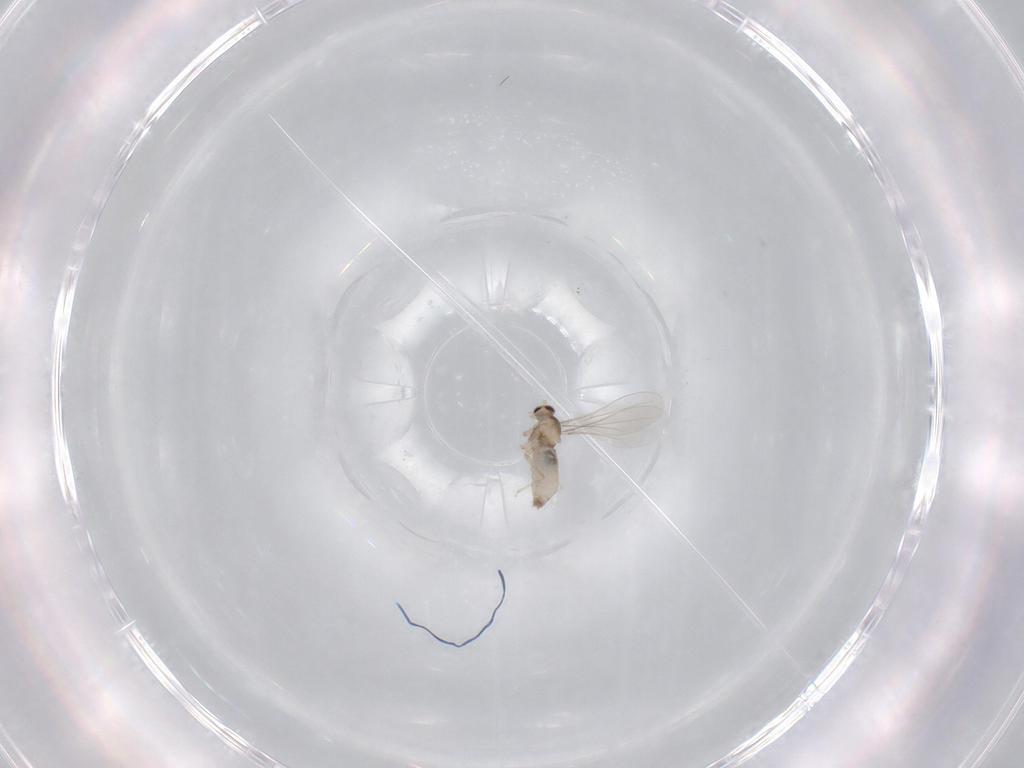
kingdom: Animalia
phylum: Arthropoda
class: Insecta
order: Diptera
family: Cecidomyiidae
